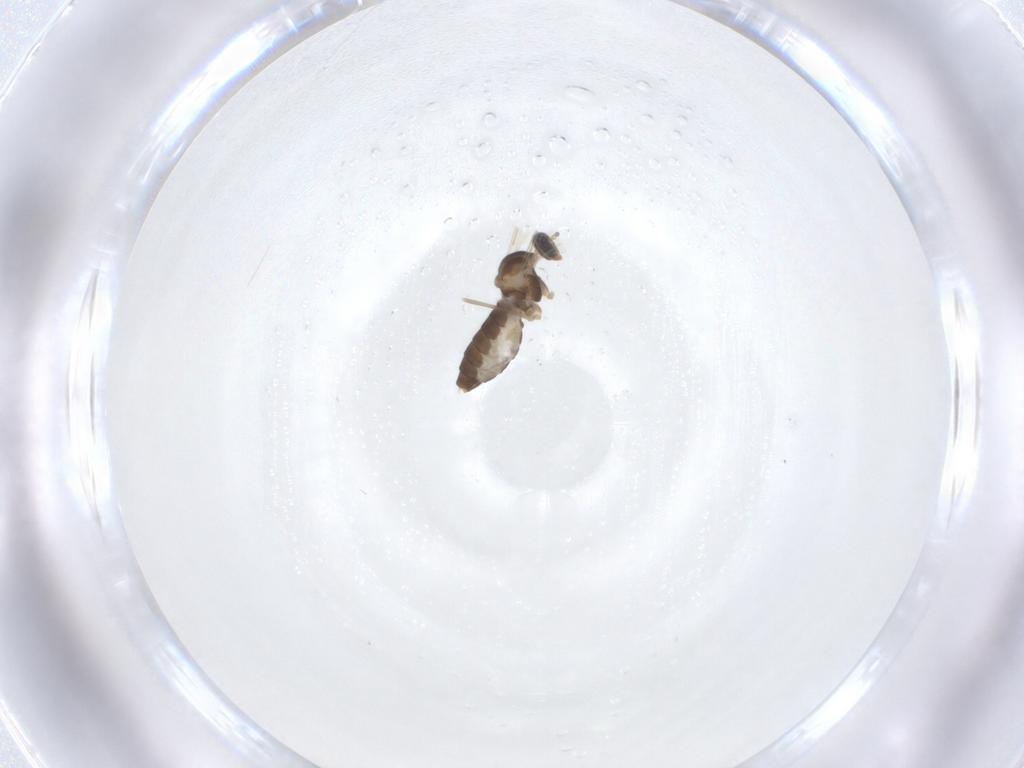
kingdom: Animalia
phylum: Arthropoda
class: Insecta
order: Diptera
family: Cecidomyiidae
